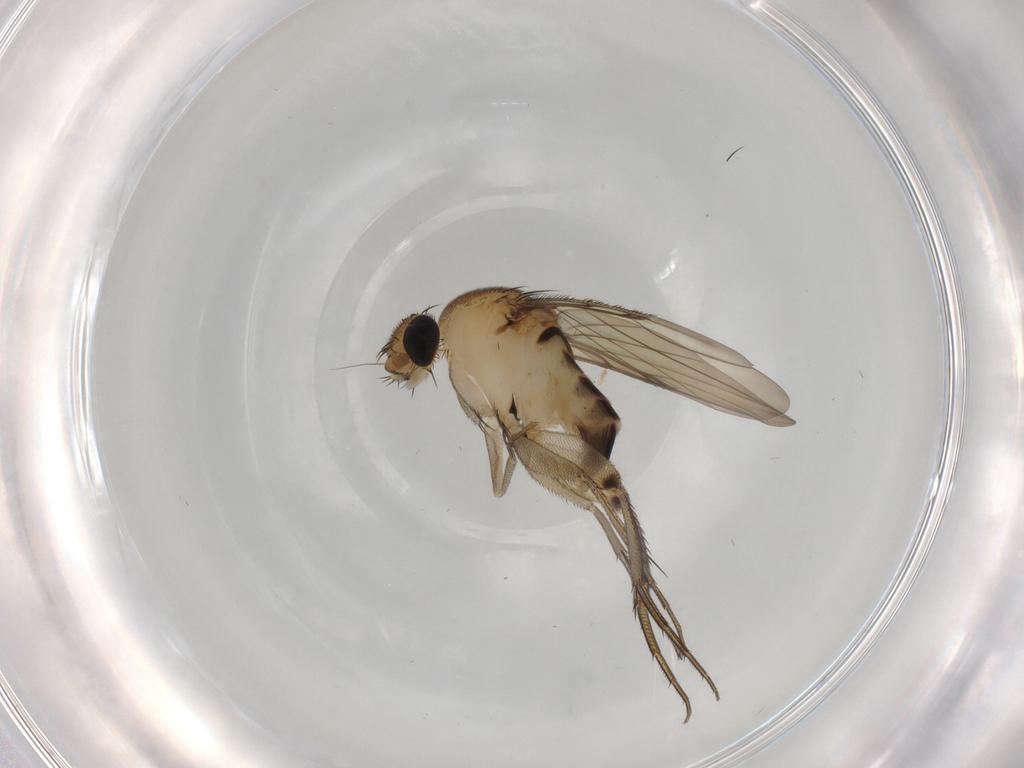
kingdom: Animalia
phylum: Arthropoda
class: Insecta
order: Diptera
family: Phoridae
